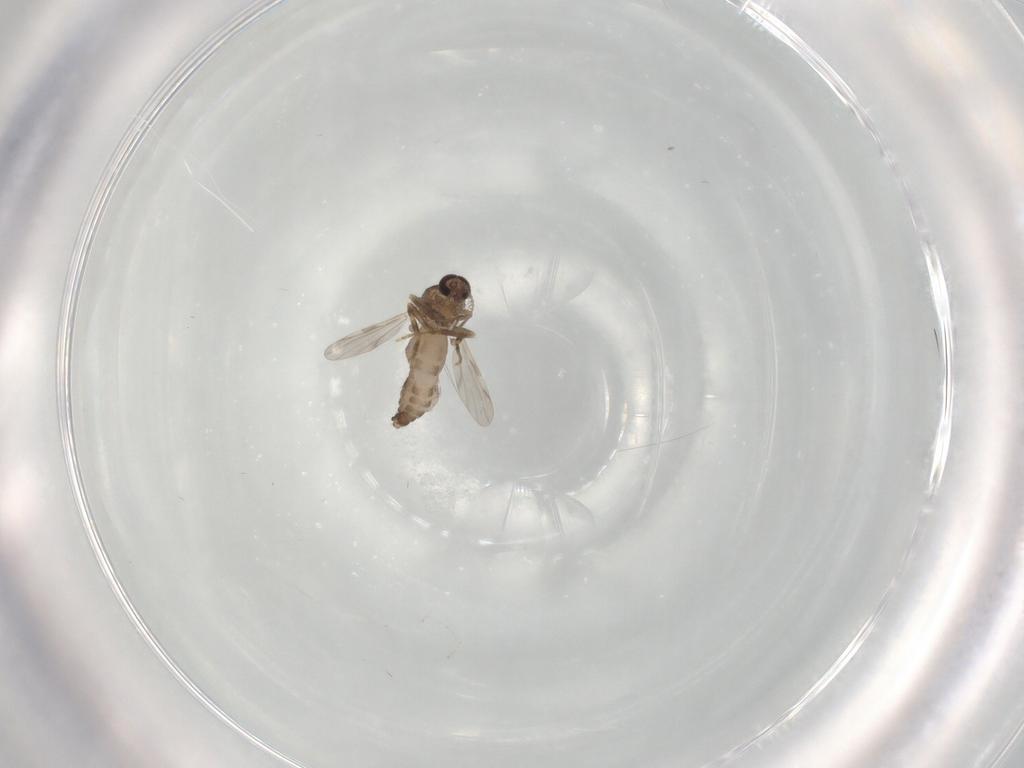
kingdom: Animalia
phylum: Arthropoda
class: Insecta
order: Diptera
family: Ceratopogonidae
